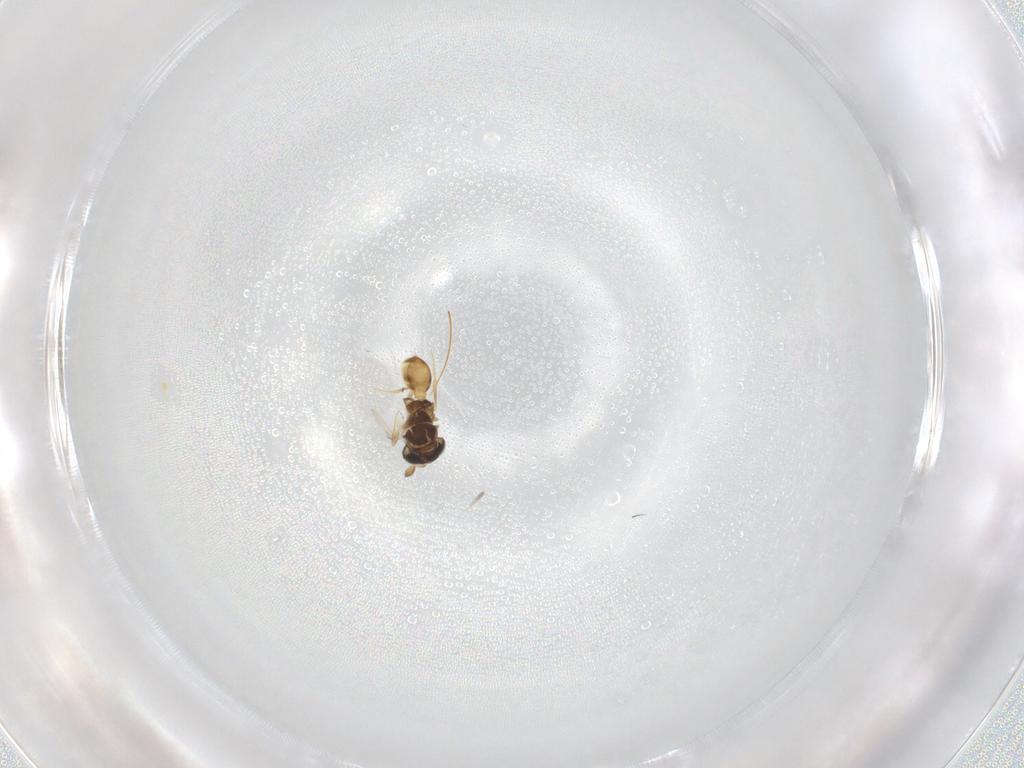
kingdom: Animalia
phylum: Arthropoda
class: Insecta
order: Hymenoptera
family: Scelionidae
